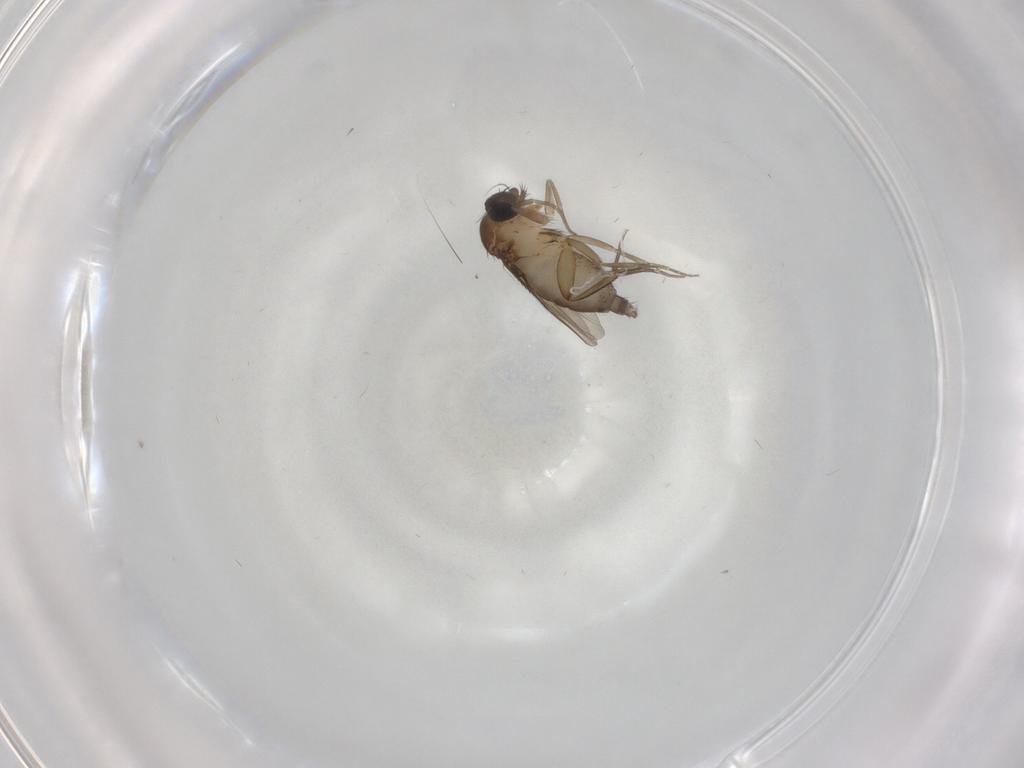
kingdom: Animalia
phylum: Arthropoda
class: Insecta
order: Diptera
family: Phoridae
